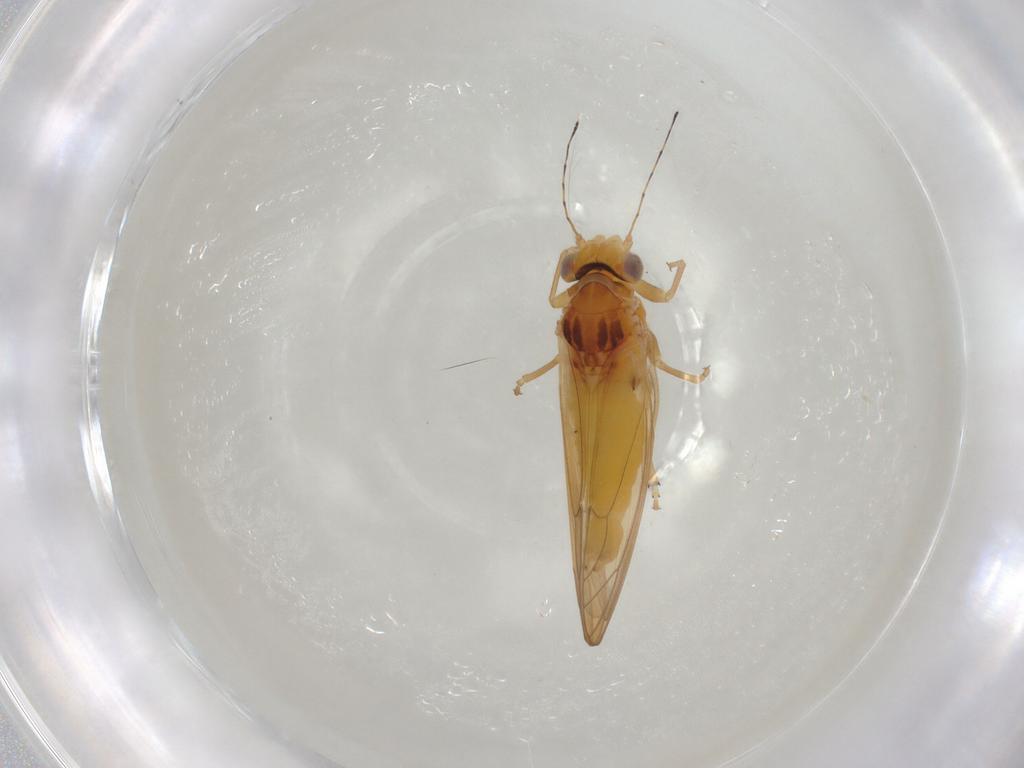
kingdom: Animalia
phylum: Arthropoda
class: Insecta
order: Hemiptera
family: Psylloidea_incertae_sedis
